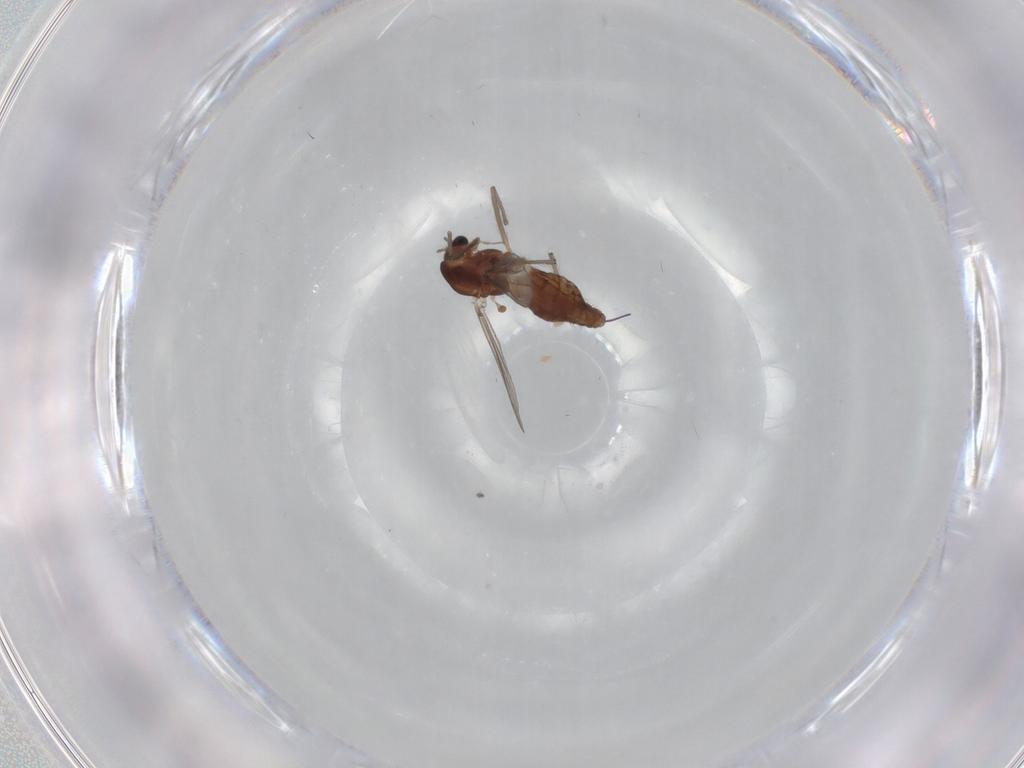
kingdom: Animalia
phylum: Arthropoda
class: Insecta
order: Diptera
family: Chironomidae
